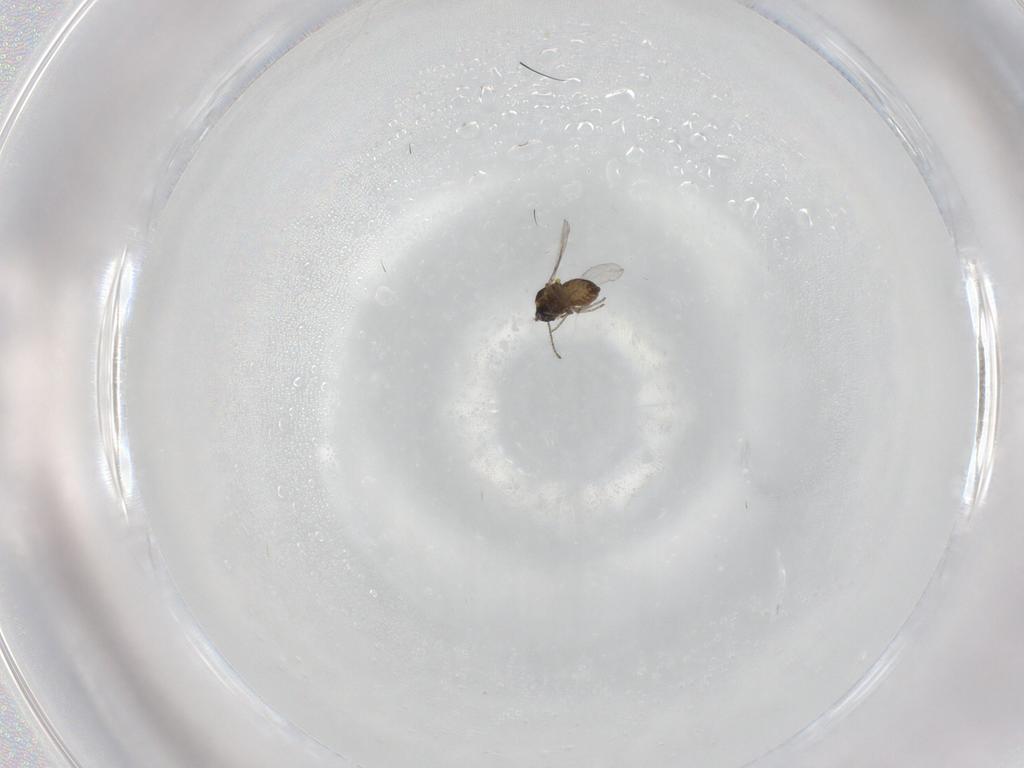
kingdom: Animalia
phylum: Arthropoda
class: Insecta
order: Diptera
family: Ceratopogonidae
